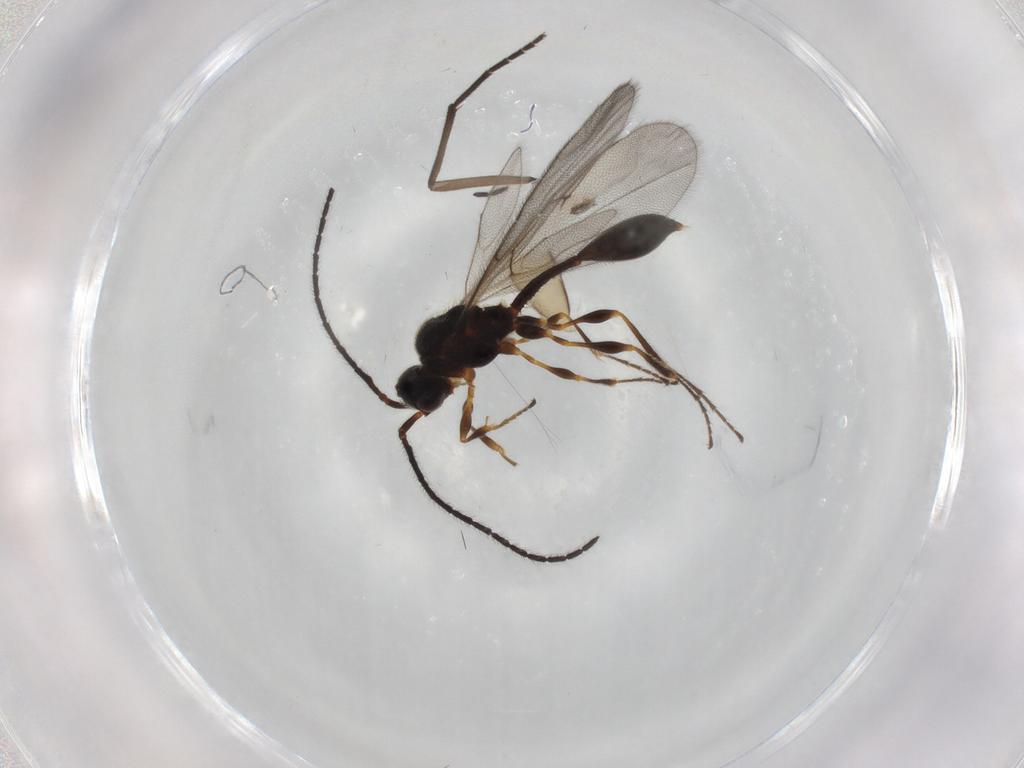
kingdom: Animalia
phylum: Arthropoda
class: Insecta
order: Hymenoptera
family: Diapriidae
